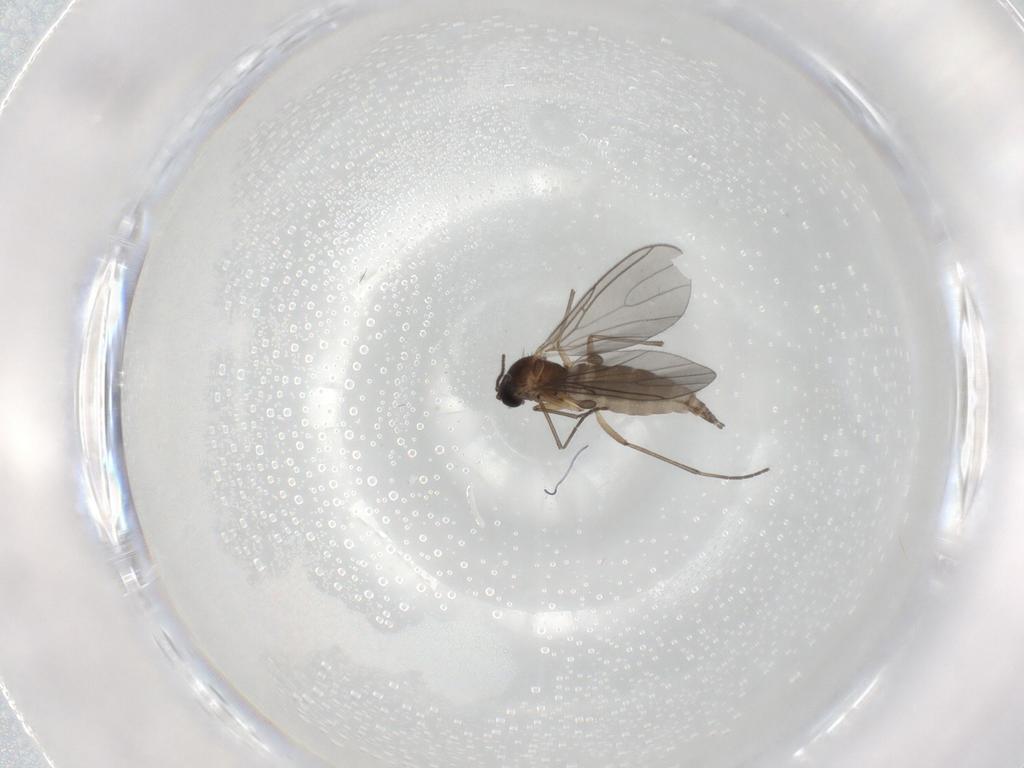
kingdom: Animalia
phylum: Arthropoda
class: Insecta
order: Diptera
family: Sciaridae
